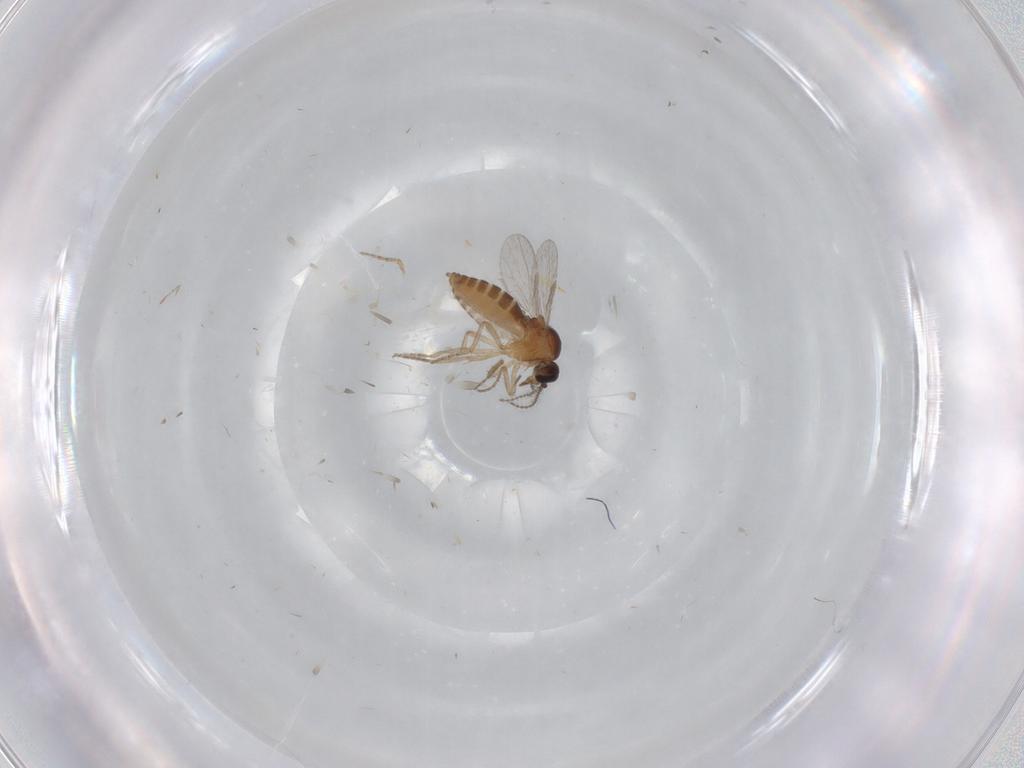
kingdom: Animalia
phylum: Arthropoda
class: Insecta
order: Diptera
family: Ceratopogonidae
